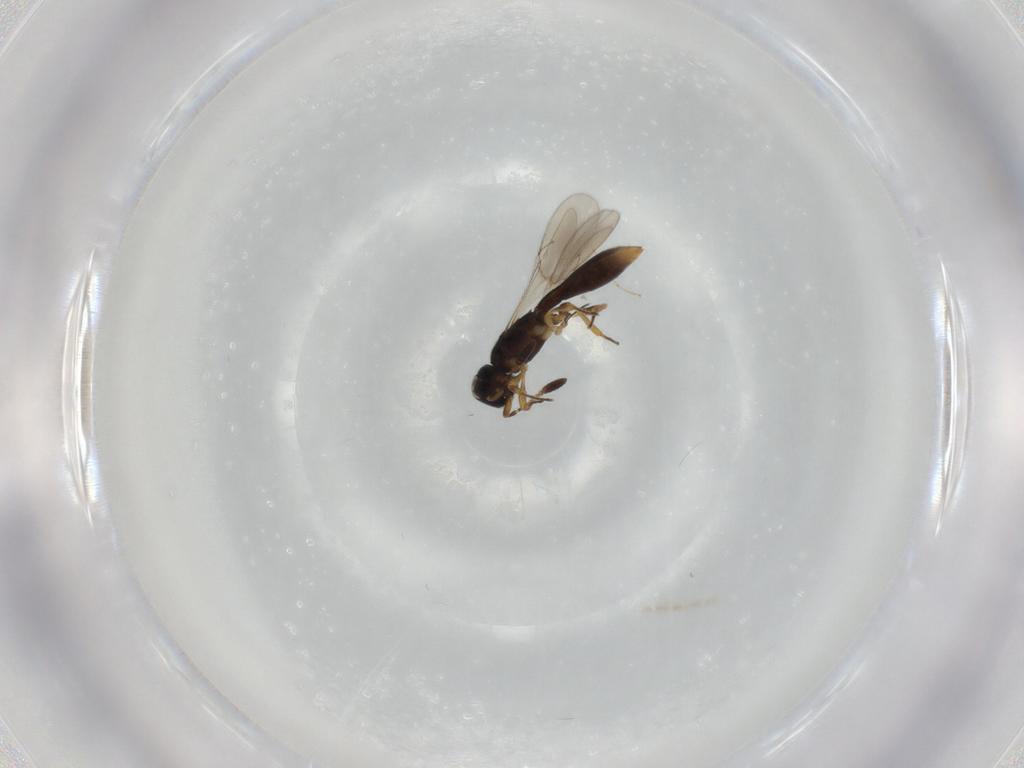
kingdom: Animalia
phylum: Arthropoda
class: Insecta
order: Hymenoptera
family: Scelionidae
